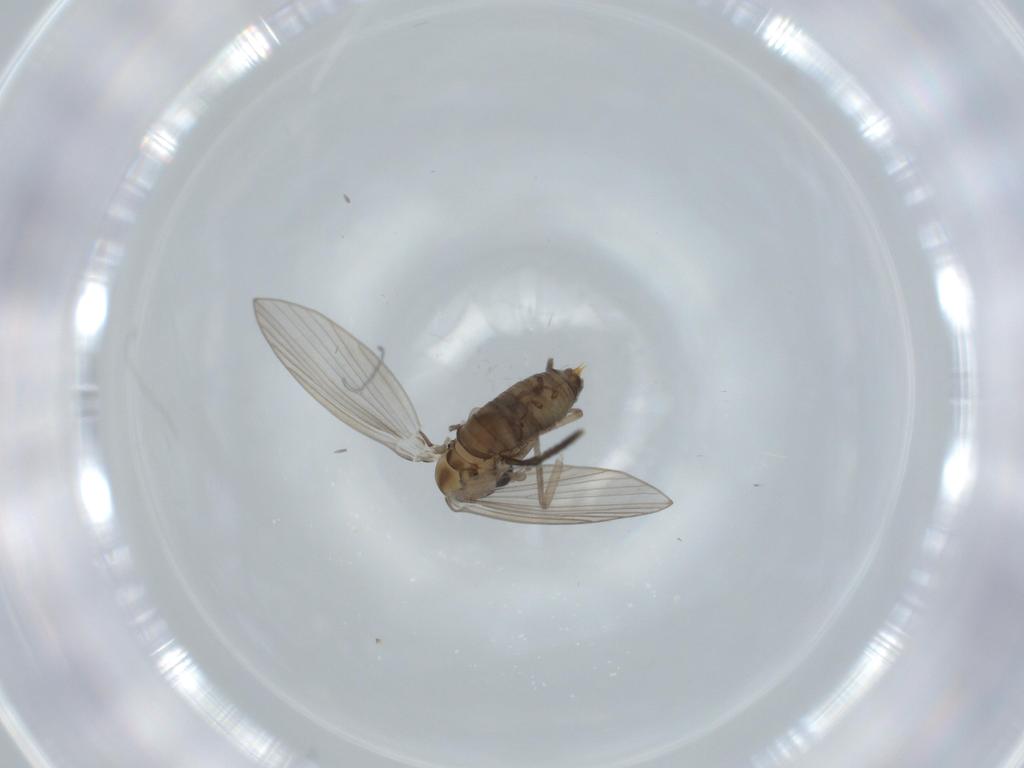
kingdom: Animalia
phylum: Arthropoda
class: Insecta
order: Diptera
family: Psychodidae
